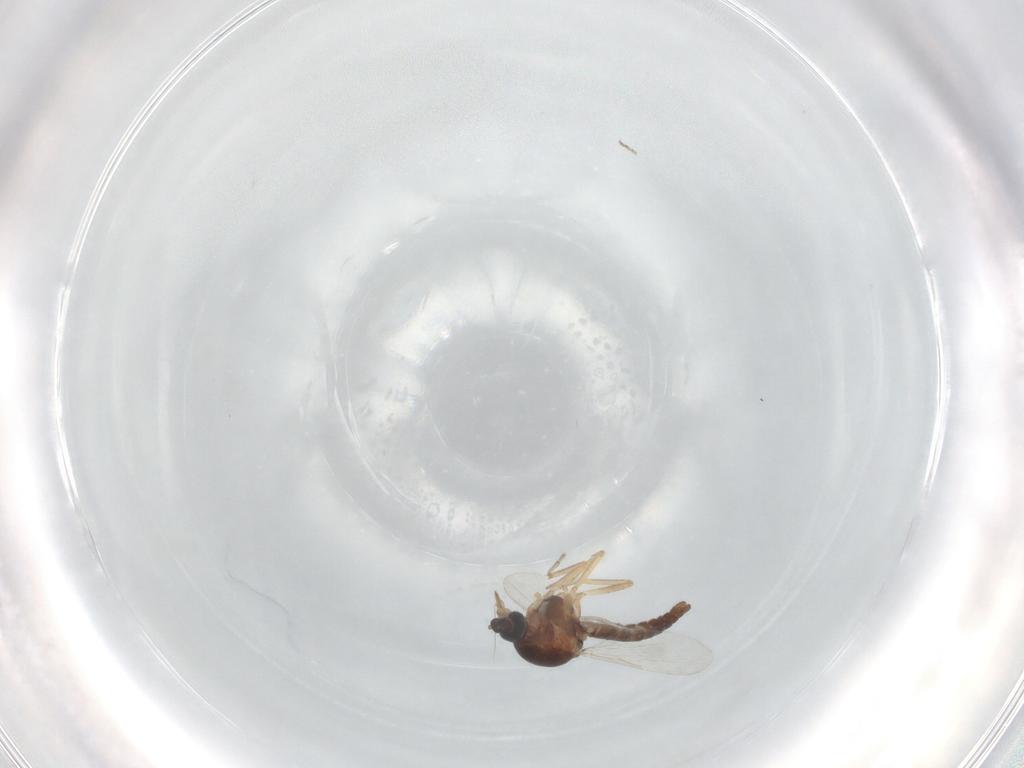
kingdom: Animalia
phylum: Arthropoda
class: Insecta
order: Diptera
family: Ceratopogonidae
